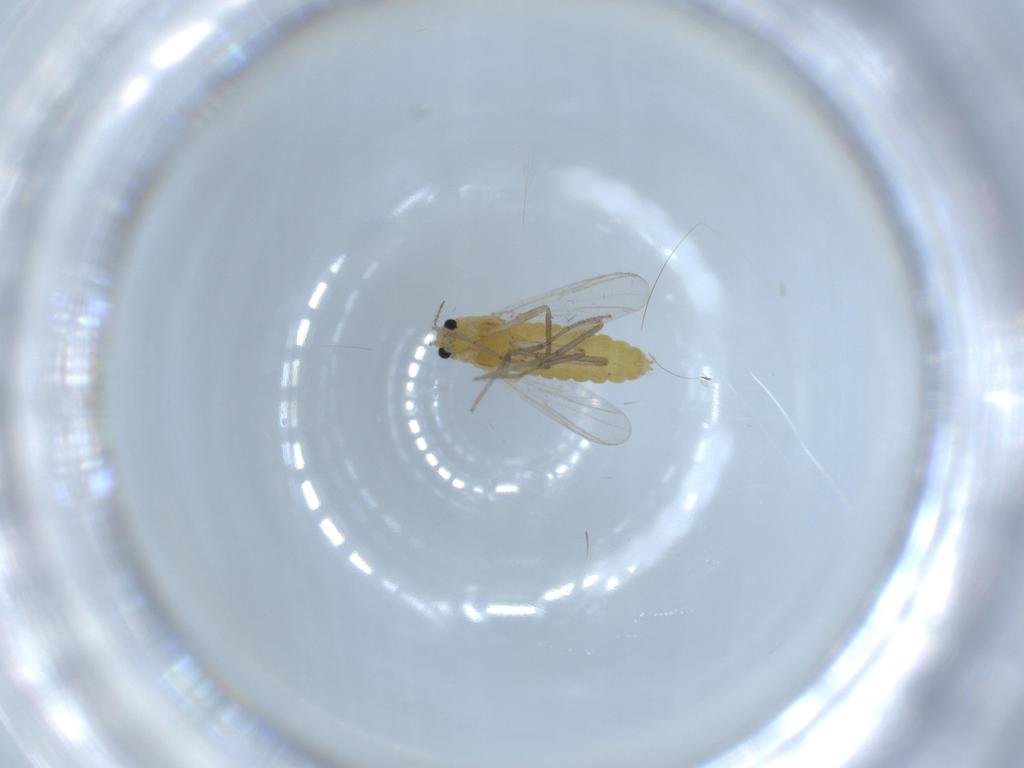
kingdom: Animalia
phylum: Arthropoda
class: Insecta
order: Diptera
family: Chironomidae
